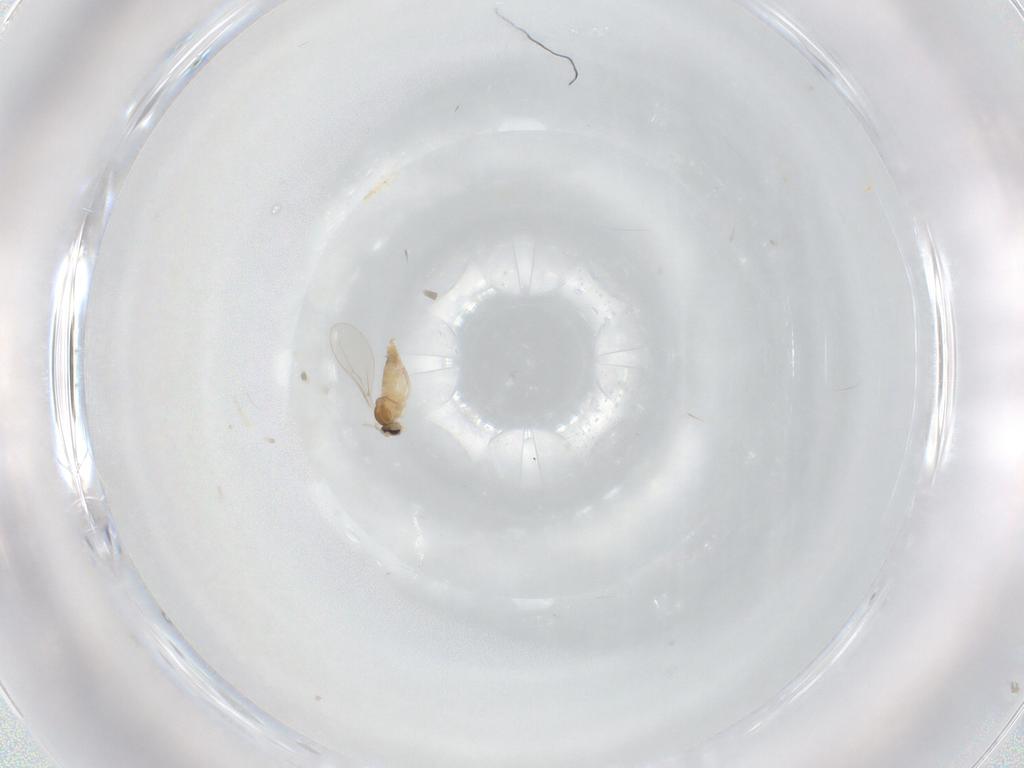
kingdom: Animalia
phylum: Arthropoda
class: Insecta
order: Diptera
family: Cecidomyiidae
